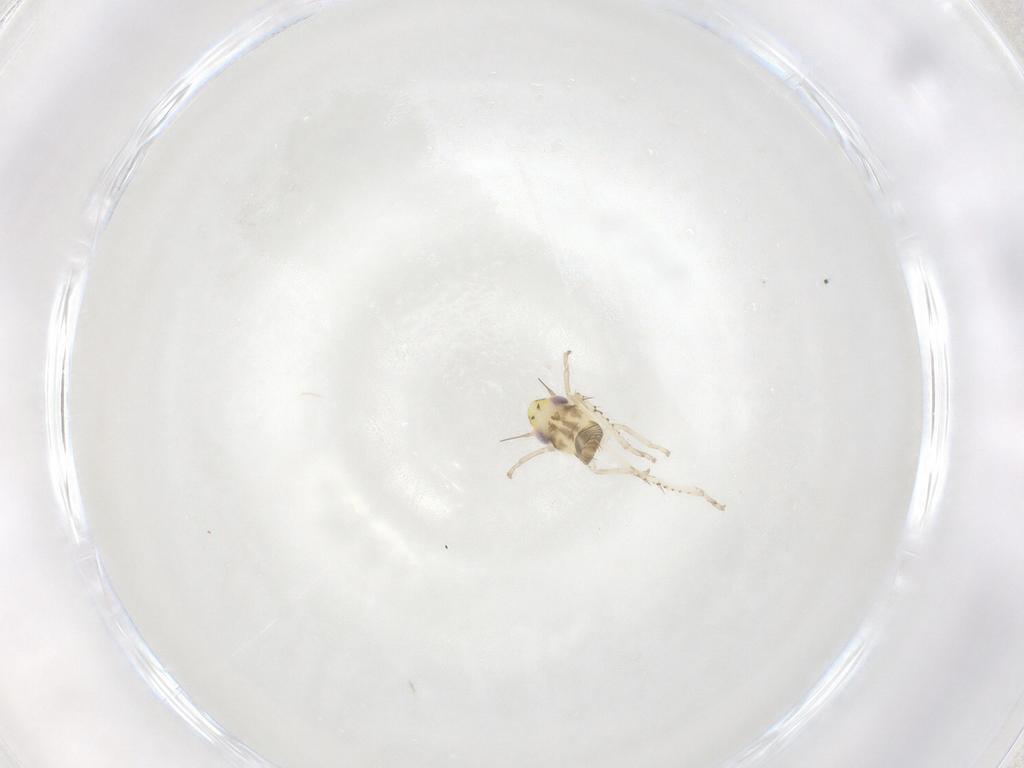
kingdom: Animalia
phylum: Arthropoda
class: Insecta
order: Hemiptera
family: Cicadellidae
